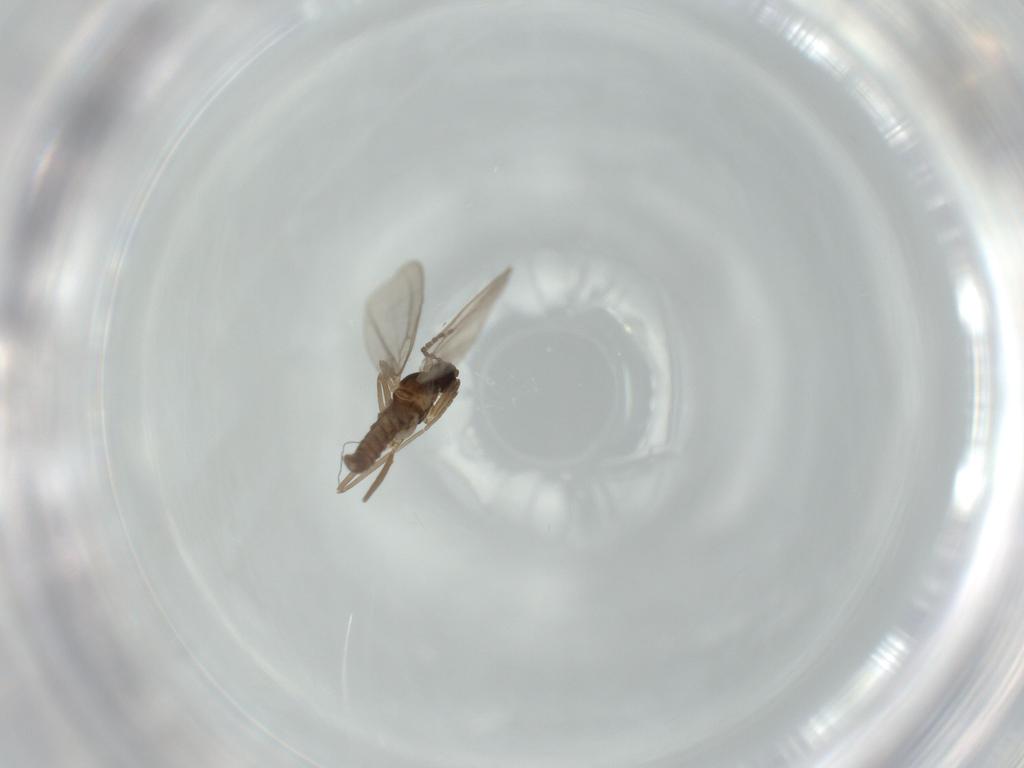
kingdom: Animalia
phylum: Arthropoda
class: Insecta
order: Diptera
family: Cecidomyiidae
